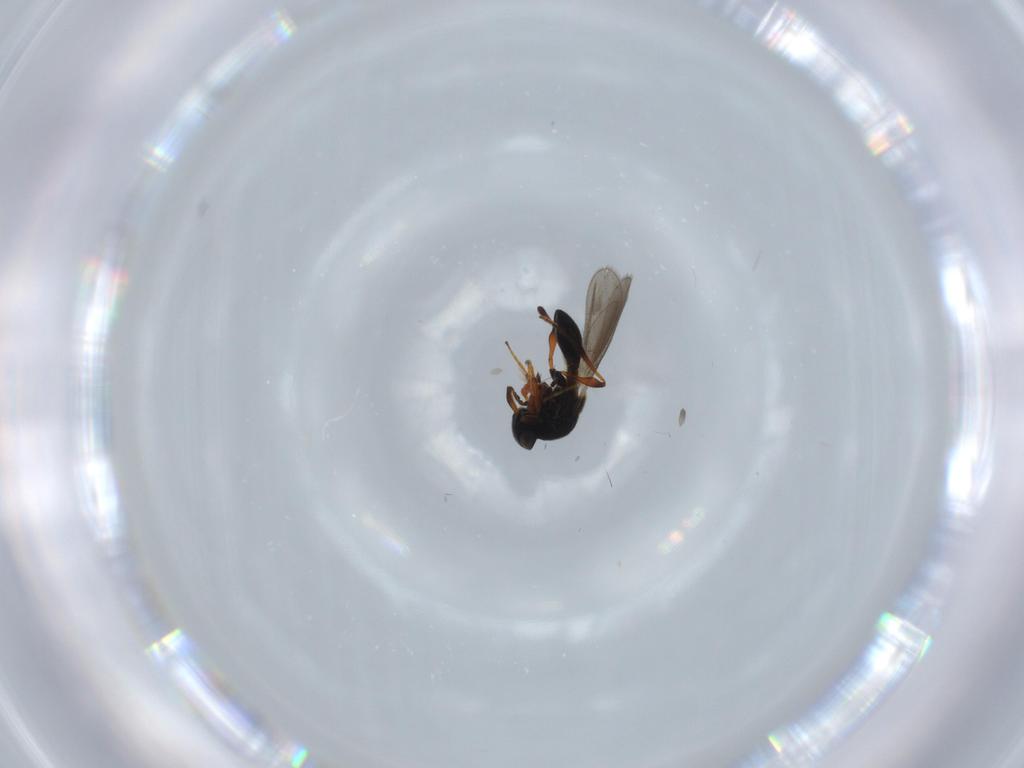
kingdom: Animalia
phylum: Arthropoda
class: Insecta
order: Hymenoptera
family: Platygastridae
